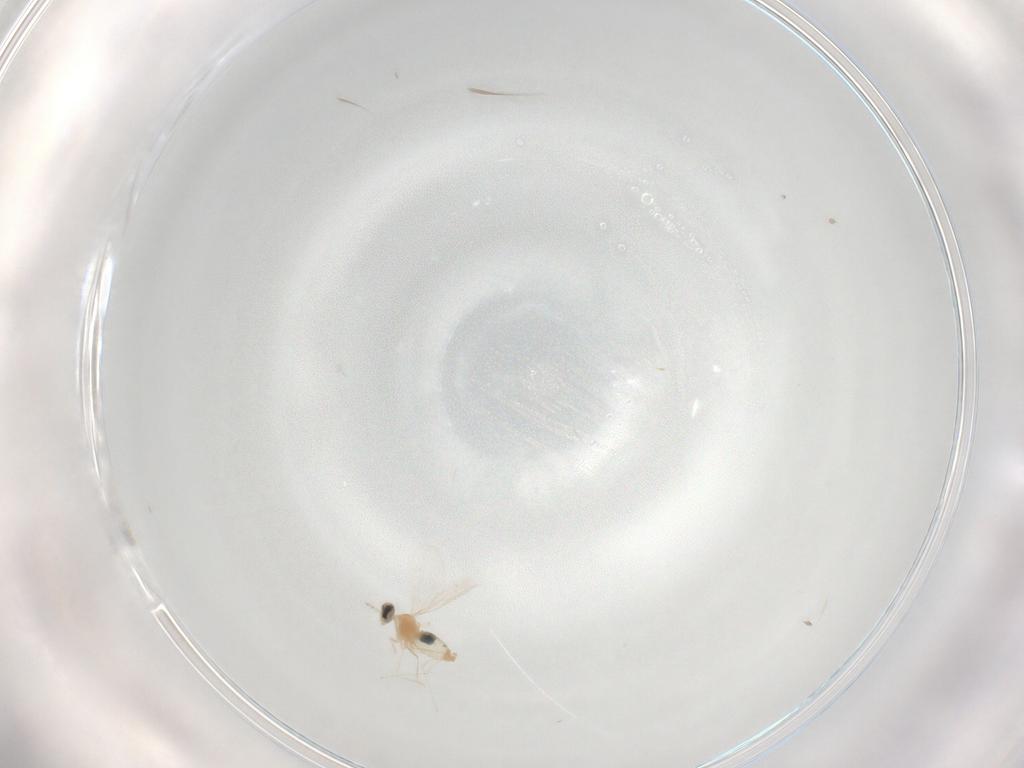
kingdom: Animalia
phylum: Arthropoda
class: Insecta
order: Diptera
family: Cecidomyiidae
